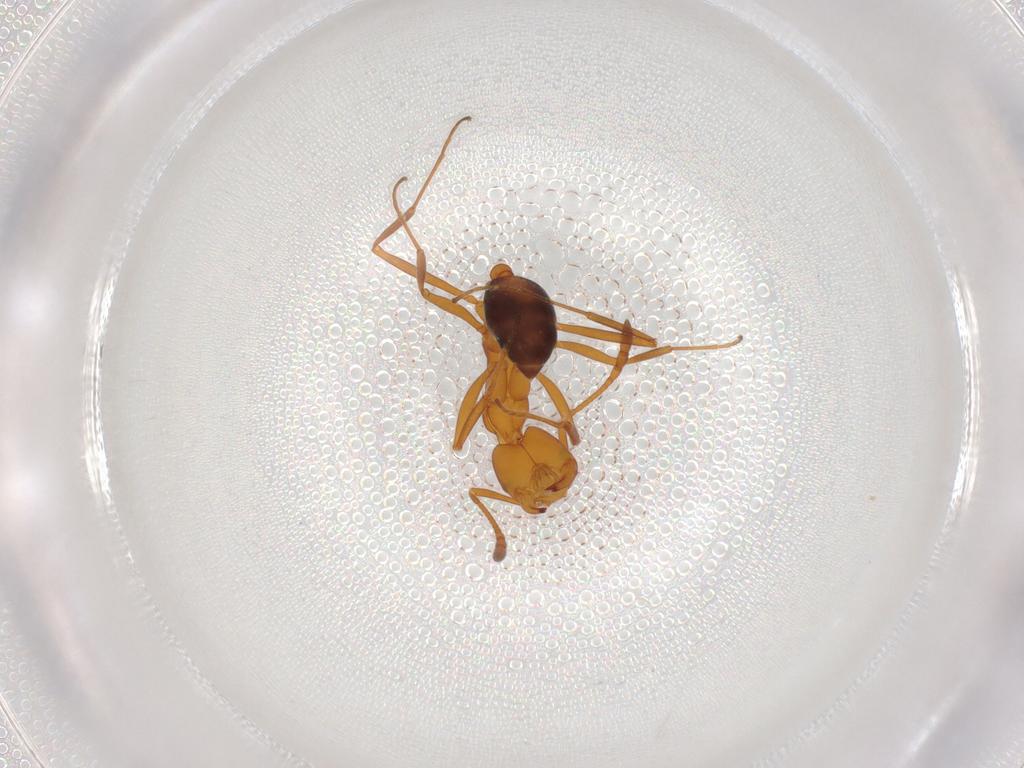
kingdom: Animalia
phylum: Arthropoda
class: Insecta
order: Hymenoptera
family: Formicidae
